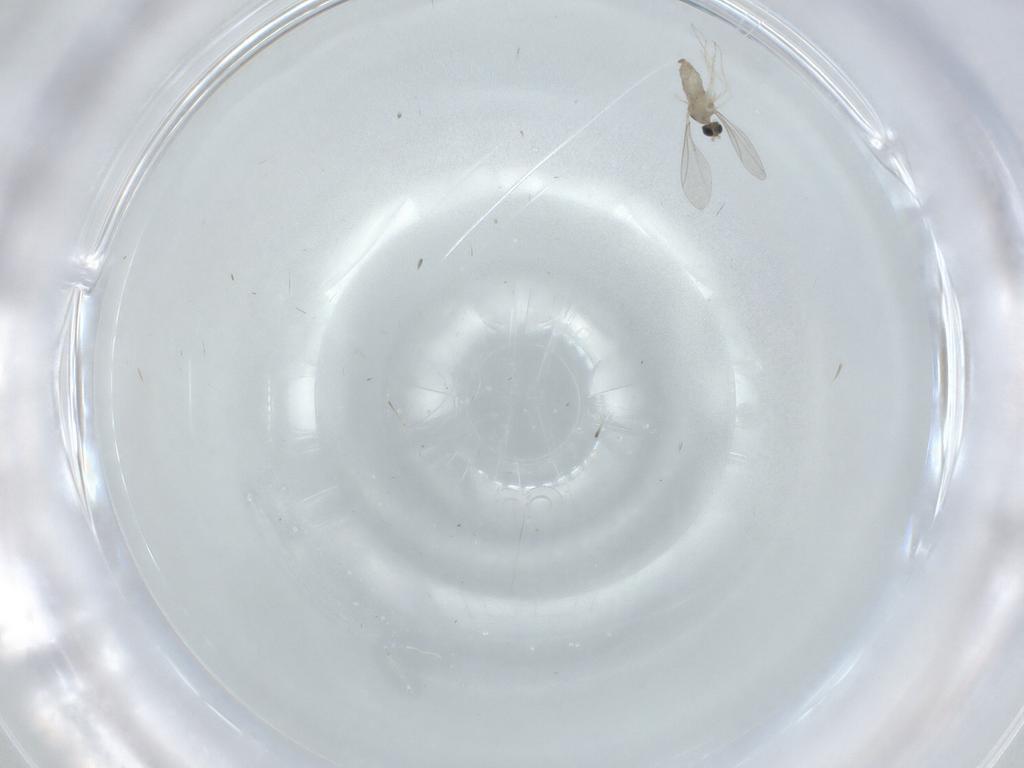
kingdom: Animalia
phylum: Arthropoda
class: Insecta
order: Diptera
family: Cecidomyiidae
